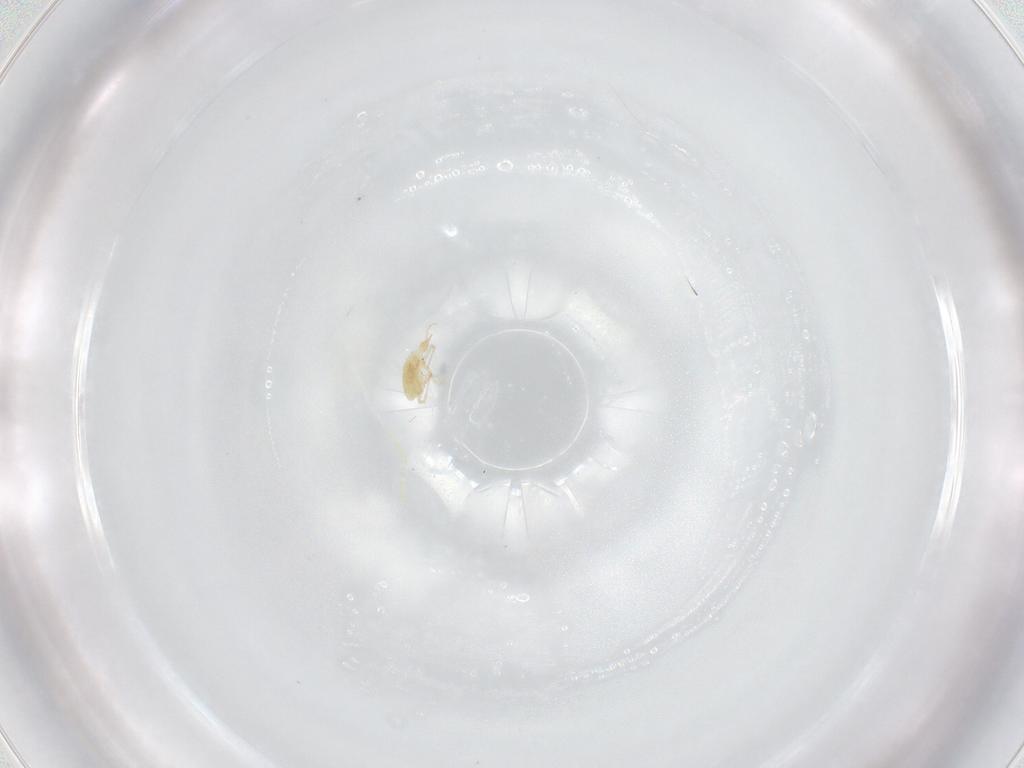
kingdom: Animalia
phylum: Arthropoda
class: Arachnida
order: Trombidiformes
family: Cunaxidae
